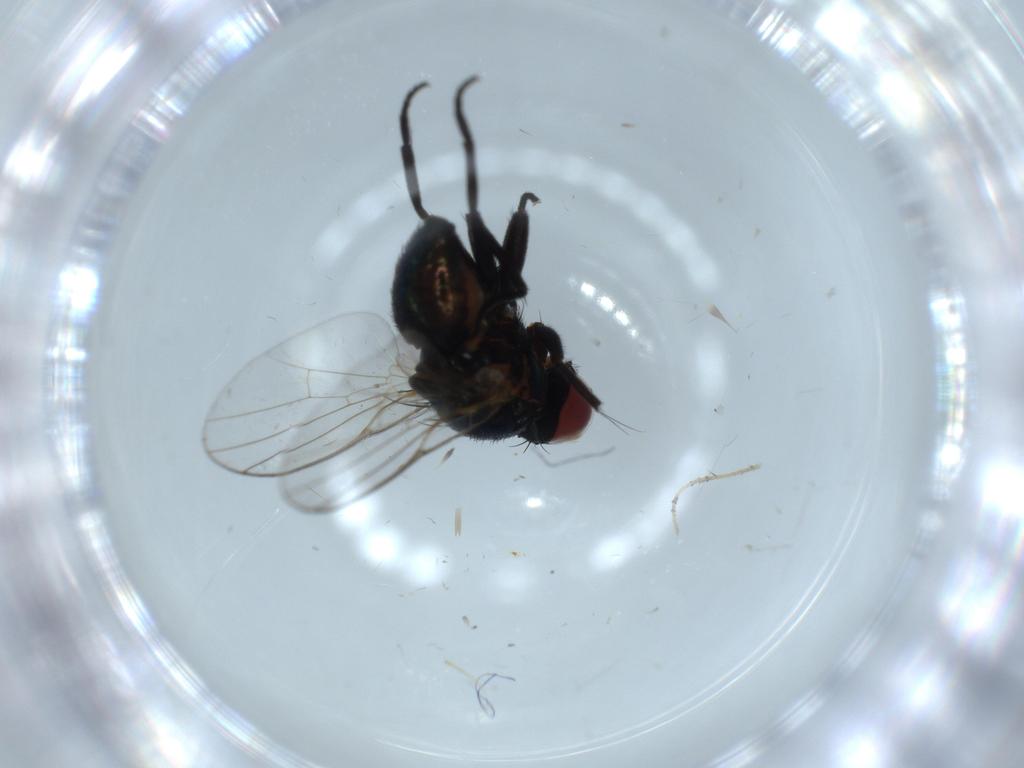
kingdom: Animalia
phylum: Arthropoda
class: Insecta
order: Diptera
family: Agromyzidae
